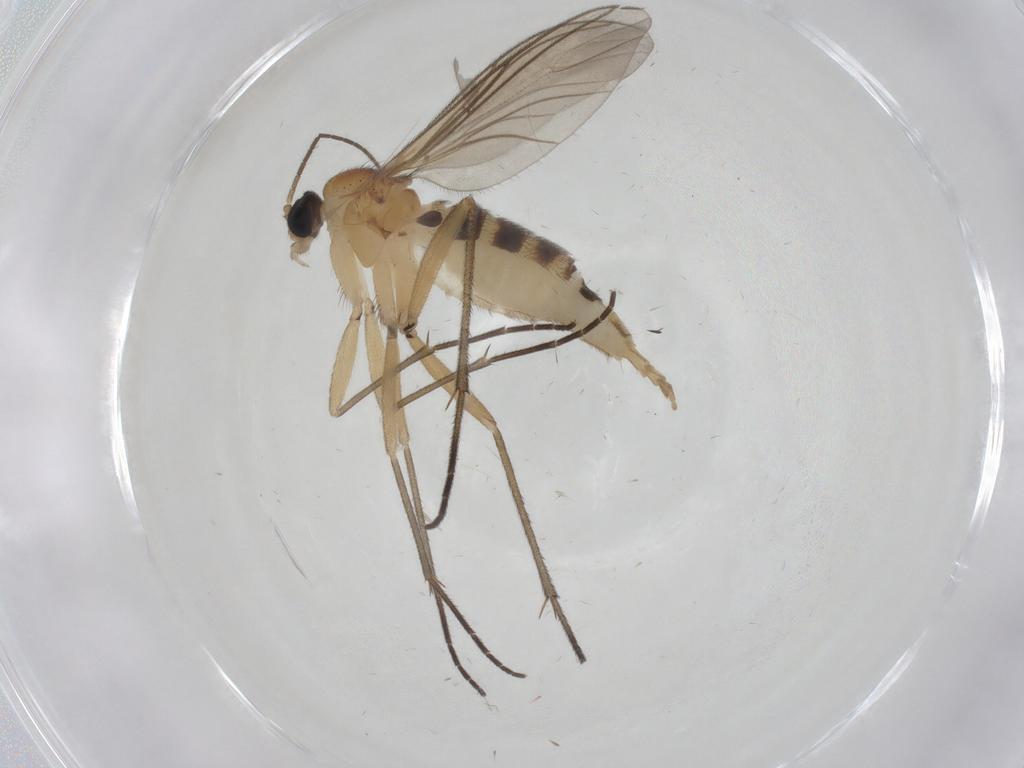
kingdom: Animalia
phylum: Arthropoda
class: Insecta
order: Diptera
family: Sciaridae
